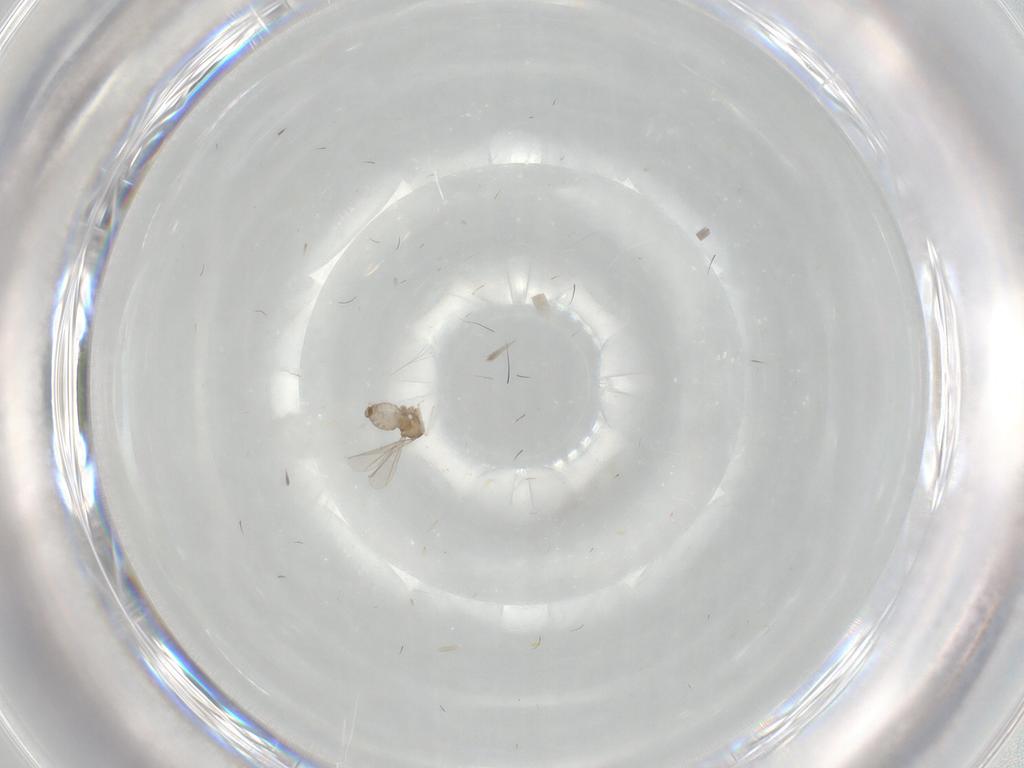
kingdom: Animalia
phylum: Arthropoda
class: Insecta
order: Diptera
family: Cecidomyiidae
